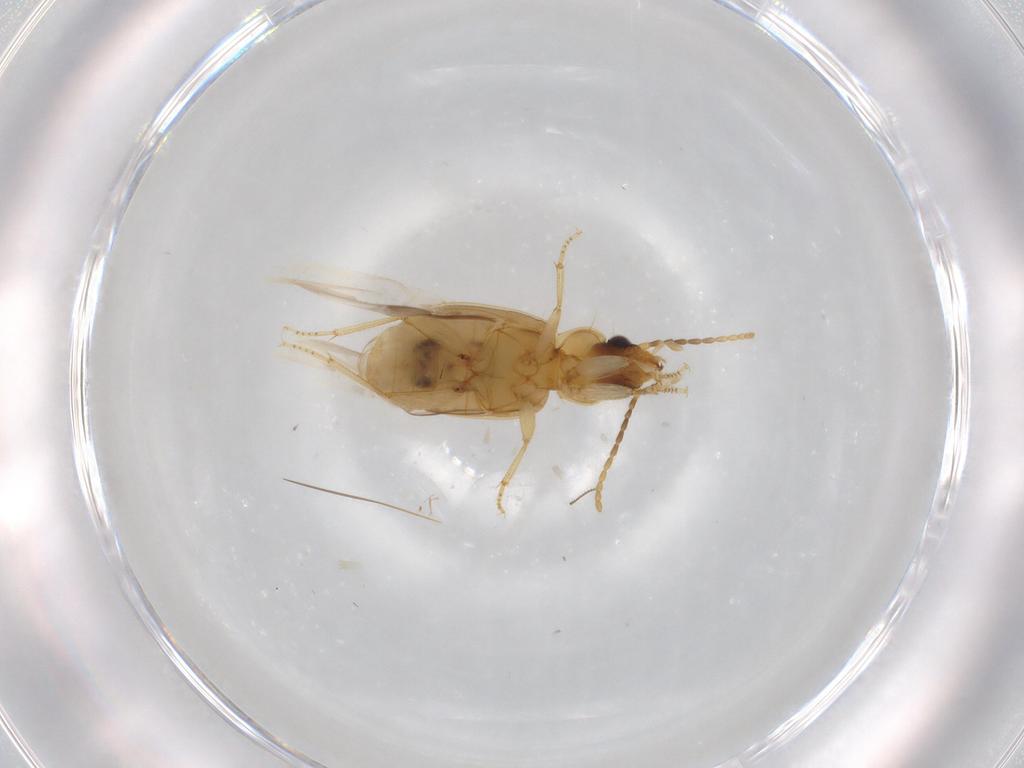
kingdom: Animalia
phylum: Arthropoda
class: Insecta
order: Coleoptera
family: Carabidae
